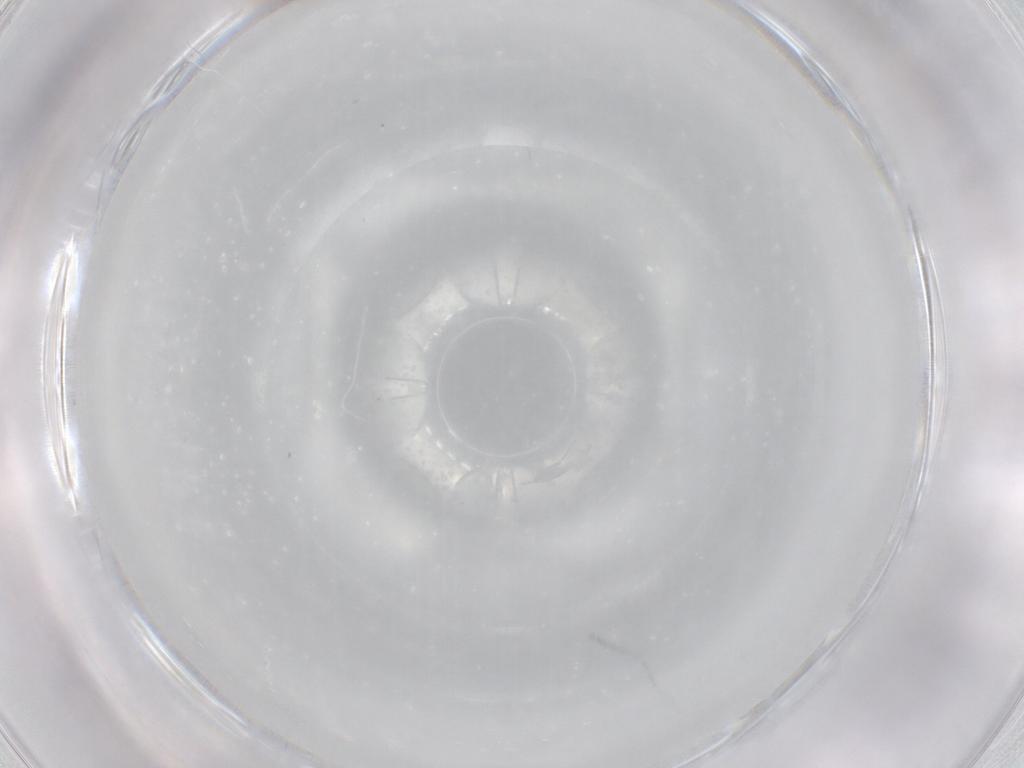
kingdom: Animalia
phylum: Arthropoda
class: Insecta
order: Diptera
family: Cecidomyiidae
